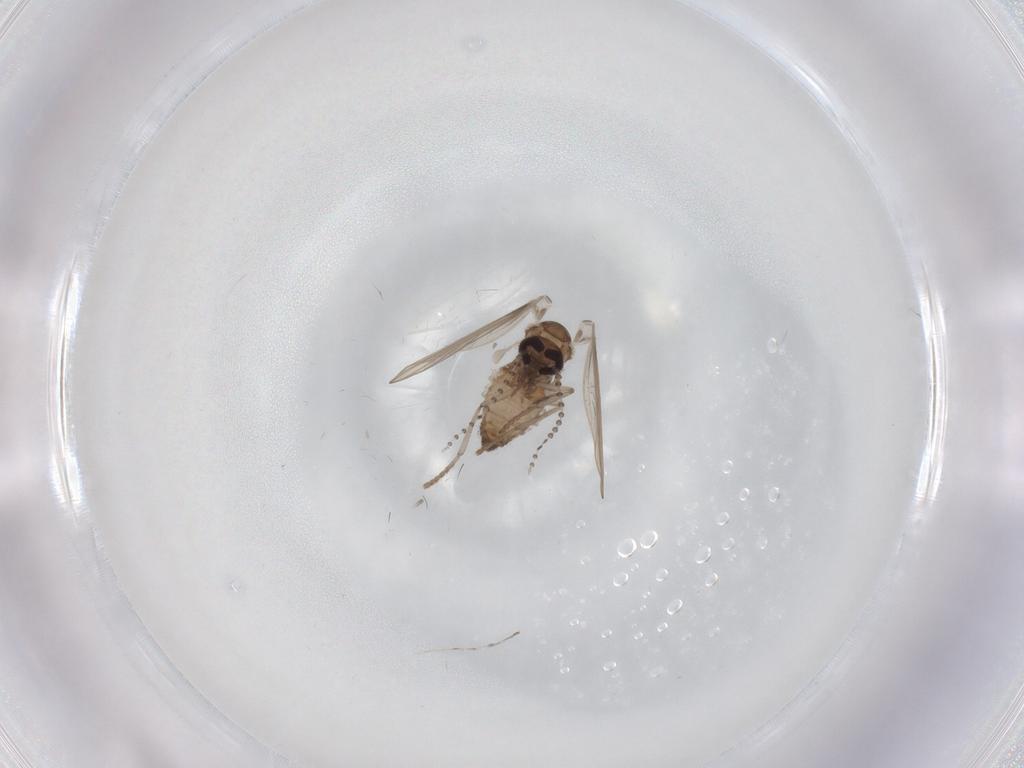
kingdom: Animalia
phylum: Arthropoda
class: Insecta
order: Diptera
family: Psychodidae
